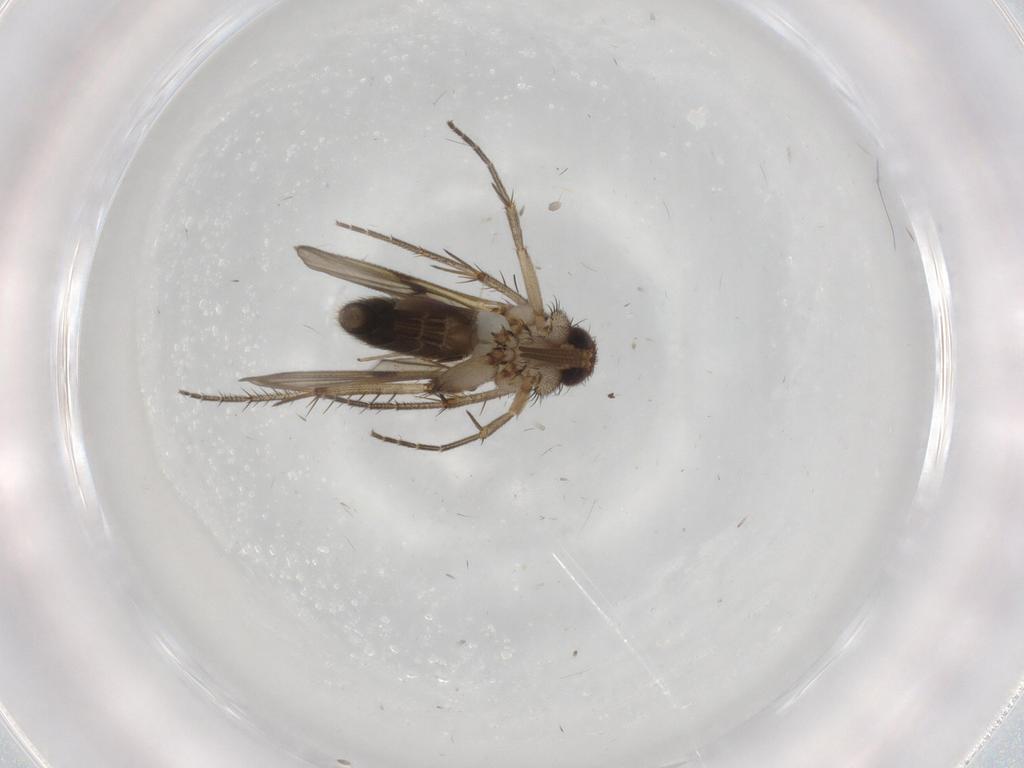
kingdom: Animalia
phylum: Arthropoda
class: Insecta
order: Diptera
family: Mycetophilidae
